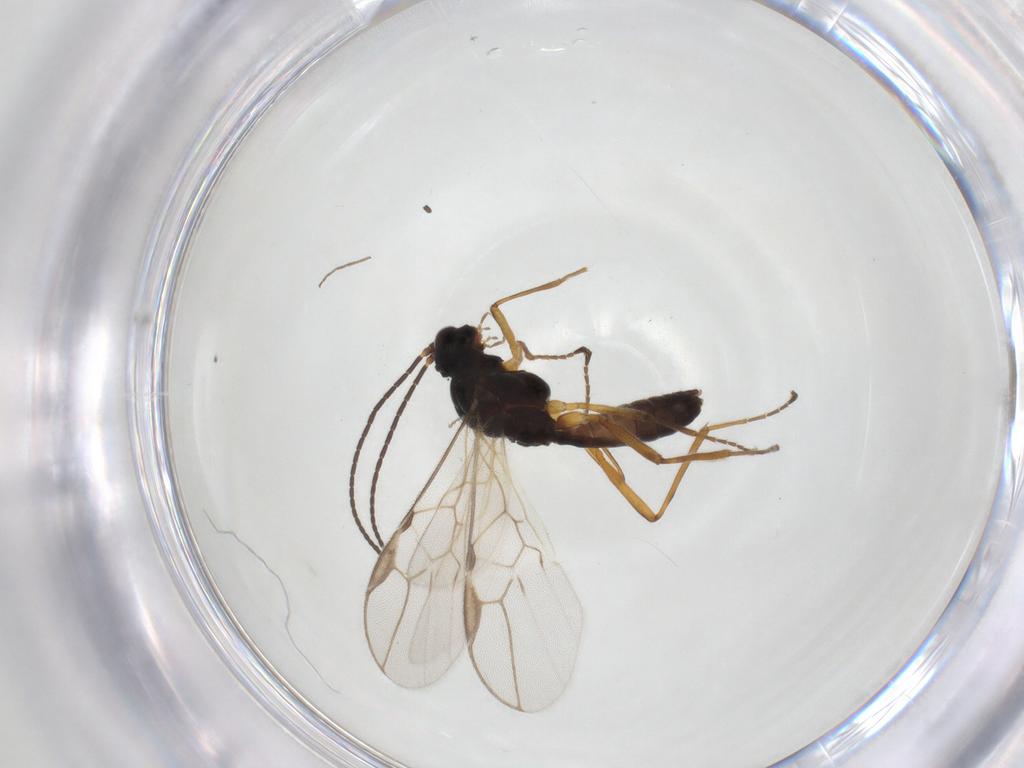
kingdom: Animalia
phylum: Arthropoda
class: Insecta
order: Hymenoptera
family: Braconidae
